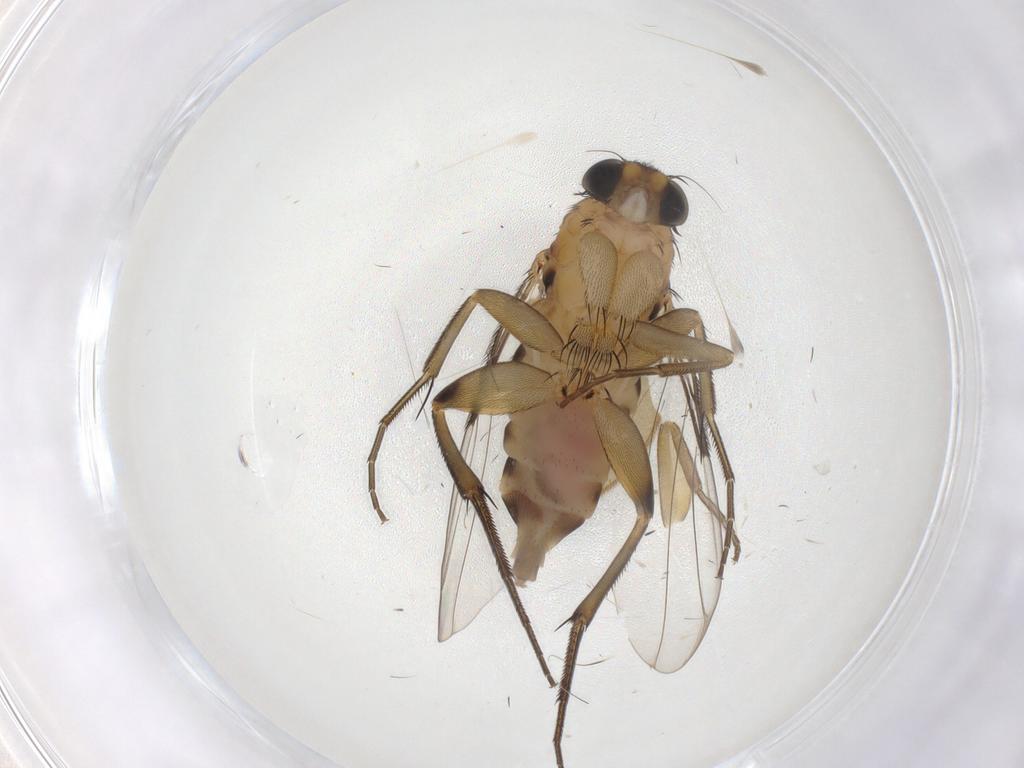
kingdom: Animalia
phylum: Arthropoda
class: Insecta
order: Diptera
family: Phoridae
